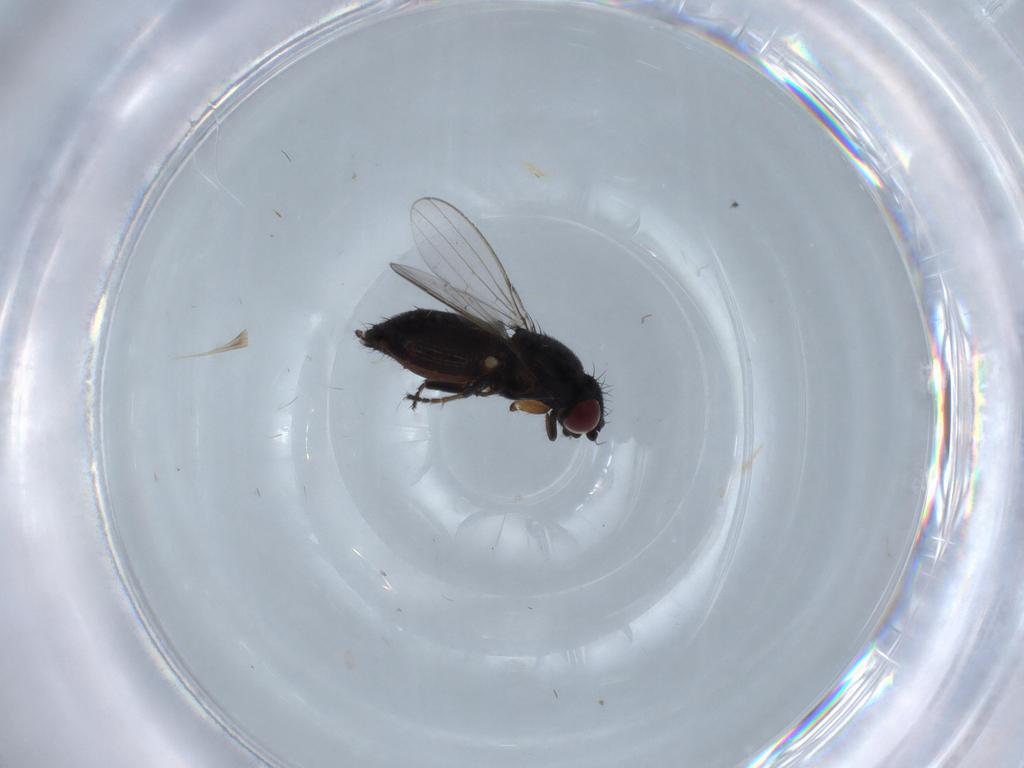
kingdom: Animalia
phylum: Arthropoda
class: Insecta
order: Diptera
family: Milichiidae
